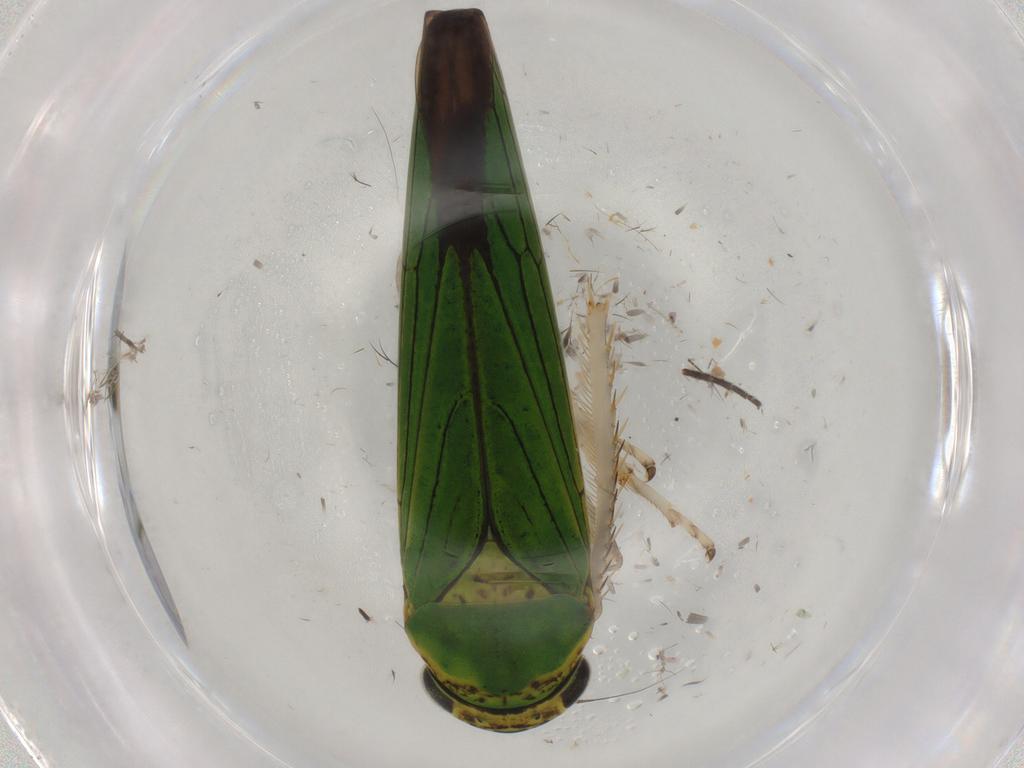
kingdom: Animalia
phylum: Arthropoda
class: Insecta
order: Hemiptera
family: Cicadellidae
